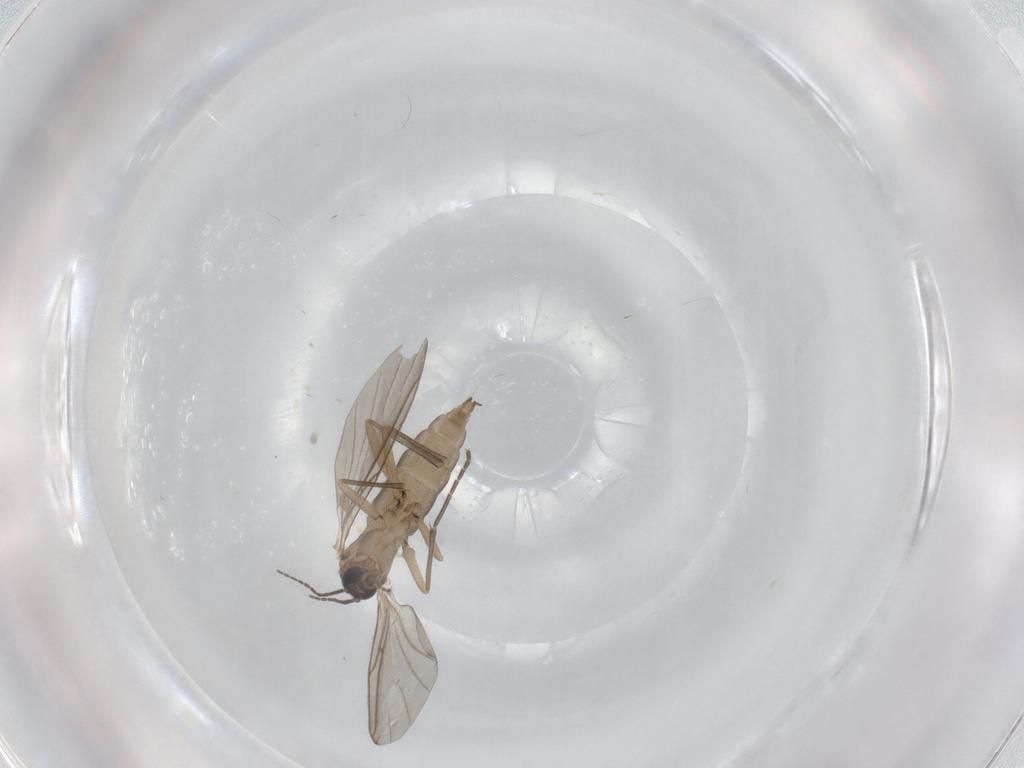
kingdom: Animalia
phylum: Arthropoda
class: Insecta
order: Diptera
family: Sciaridae
